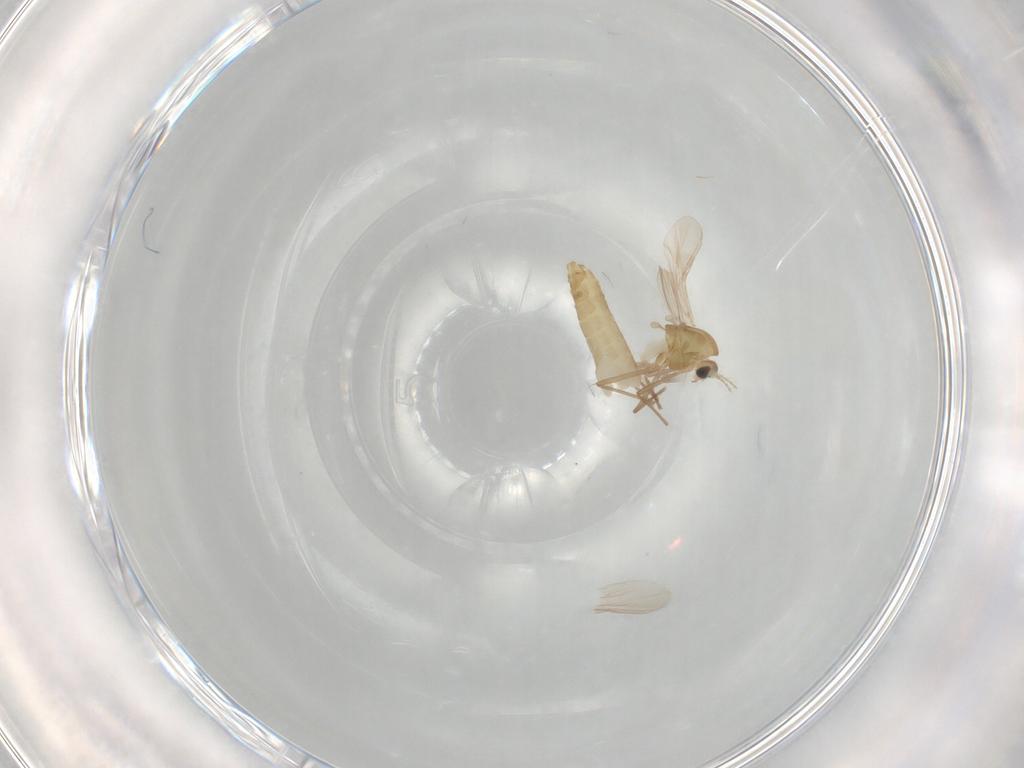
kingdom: Animalia
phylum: Arthropoda
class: Insecta
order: Diptera
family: Chironomidae
